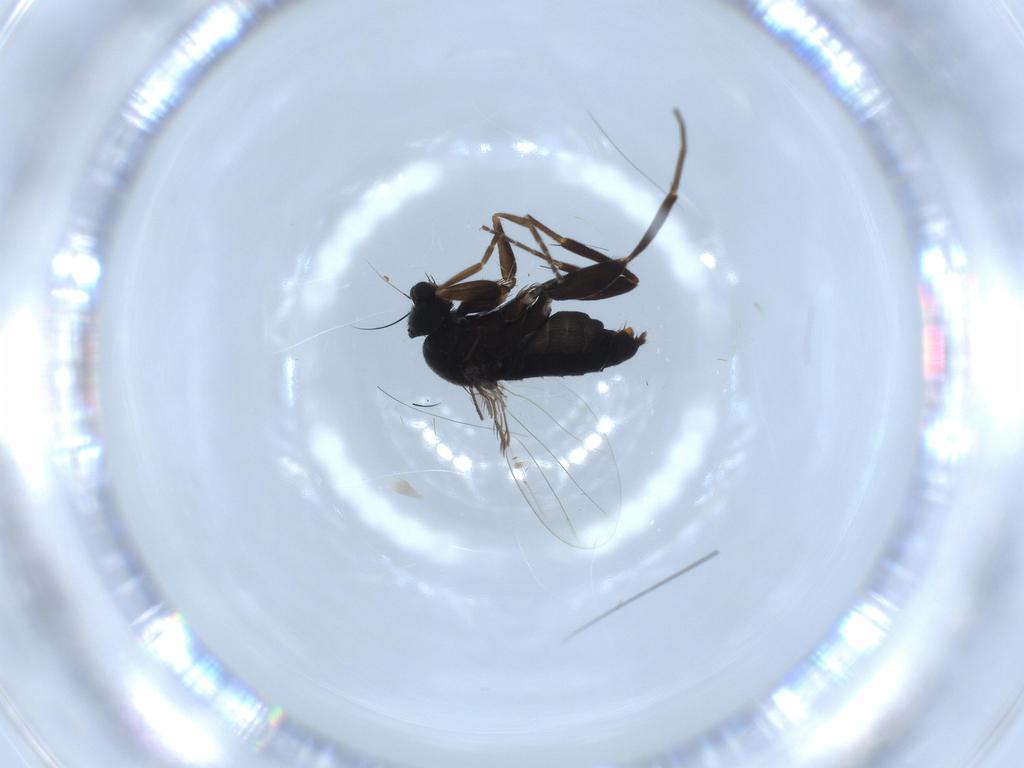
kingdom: Animalia
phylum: Arthropoda
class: Insecta
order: Diptera
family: Phoridae
